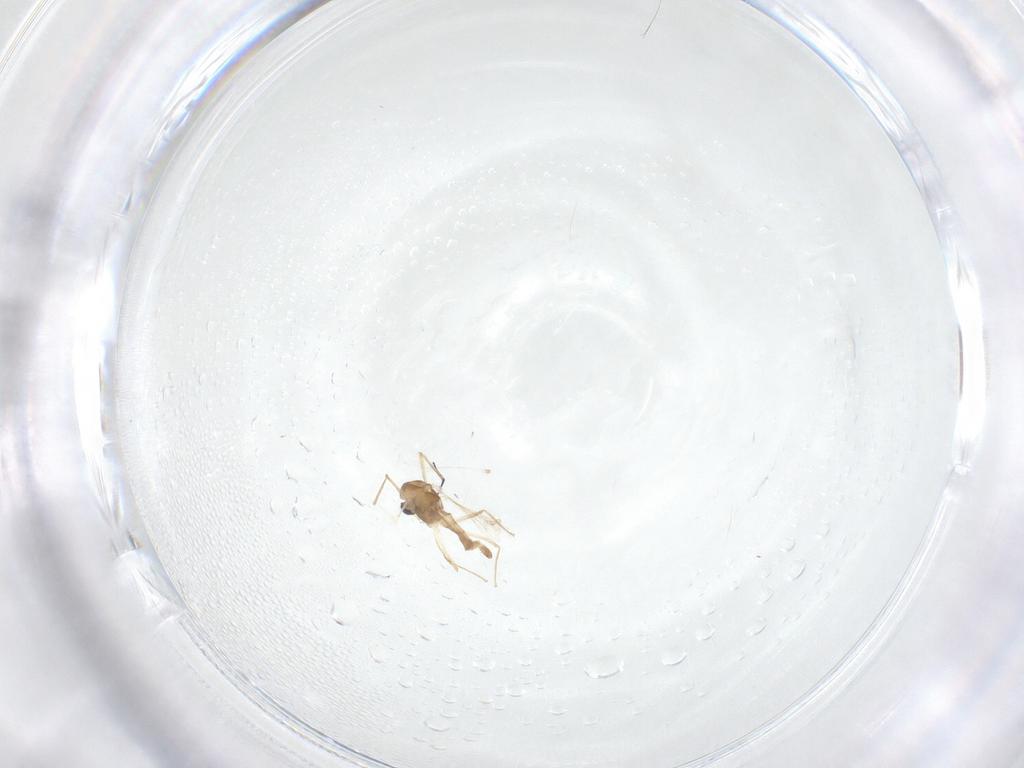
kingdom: Animalia
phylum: Arthropoda
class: Insecta
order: Diptera
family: Chironomidae
